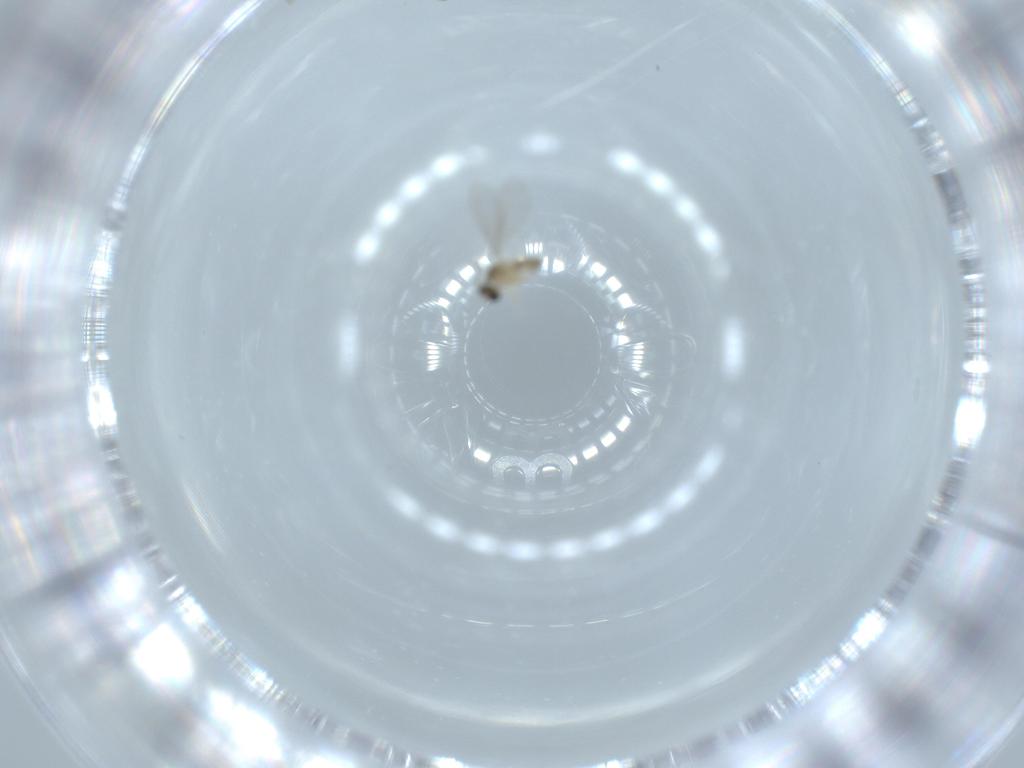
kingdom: Animalia
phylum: Arthropoda
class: Insecta
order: Diptera
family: Cecidomyiidae
